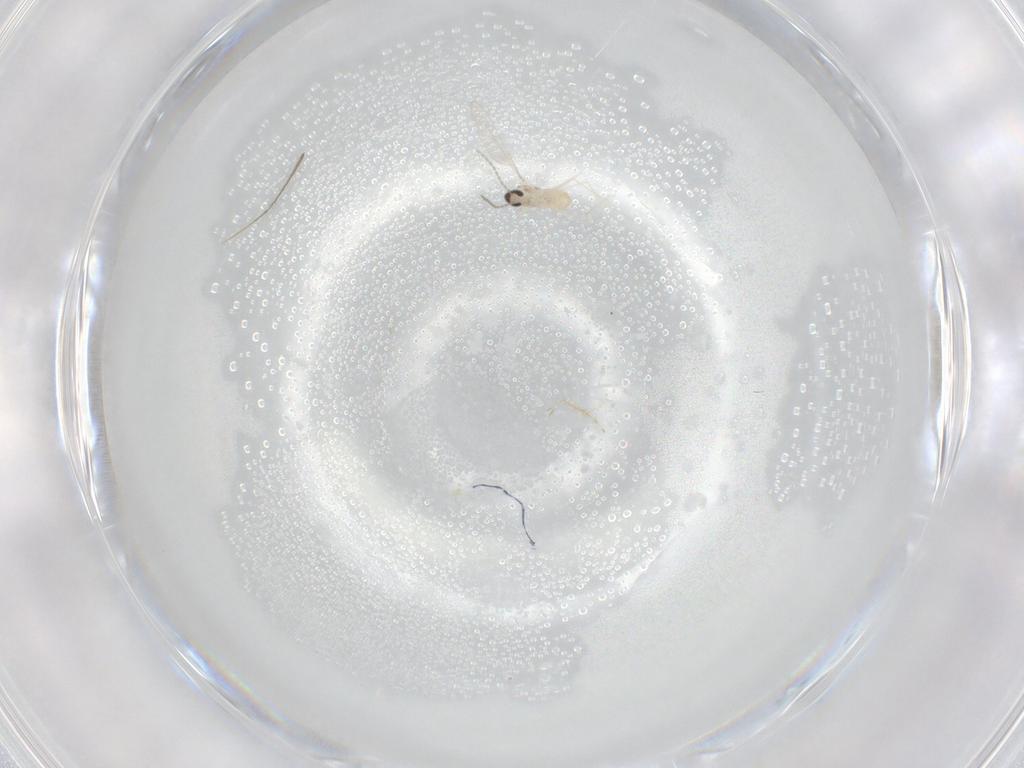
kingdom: Animalia
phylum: Arthropoda
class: Insecta
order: Diptera
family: Cecidomyiidae
